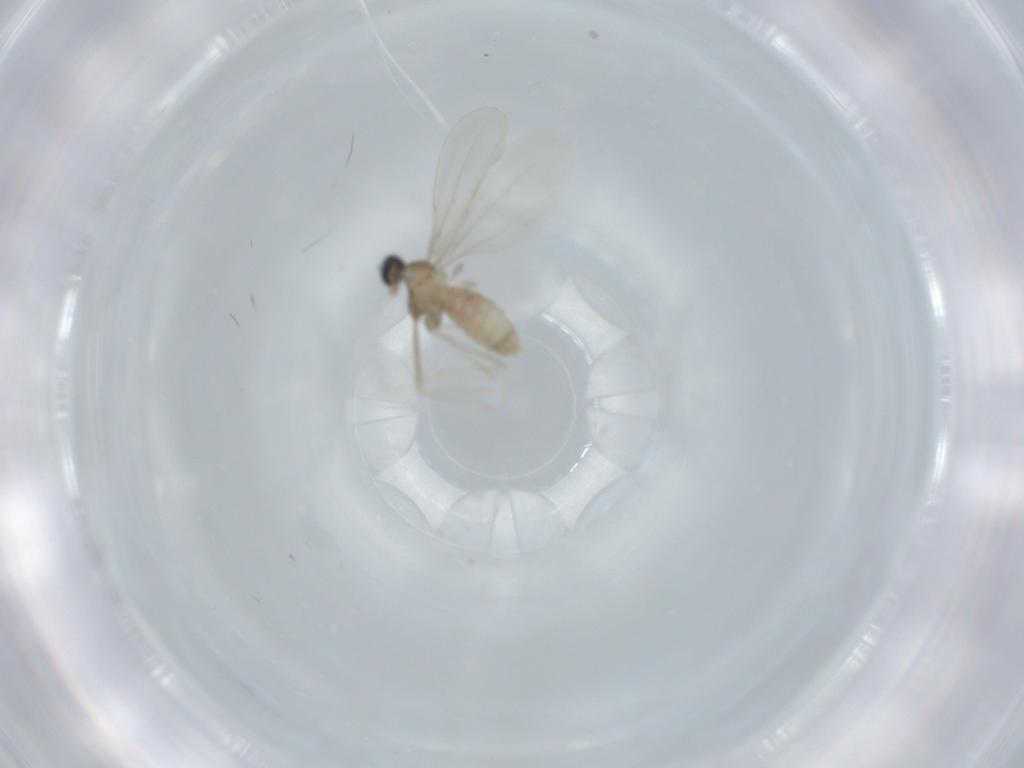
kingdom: Animalia
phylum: Arthropoda
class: Insecta
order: Diptera
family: Cecidomyiidae
